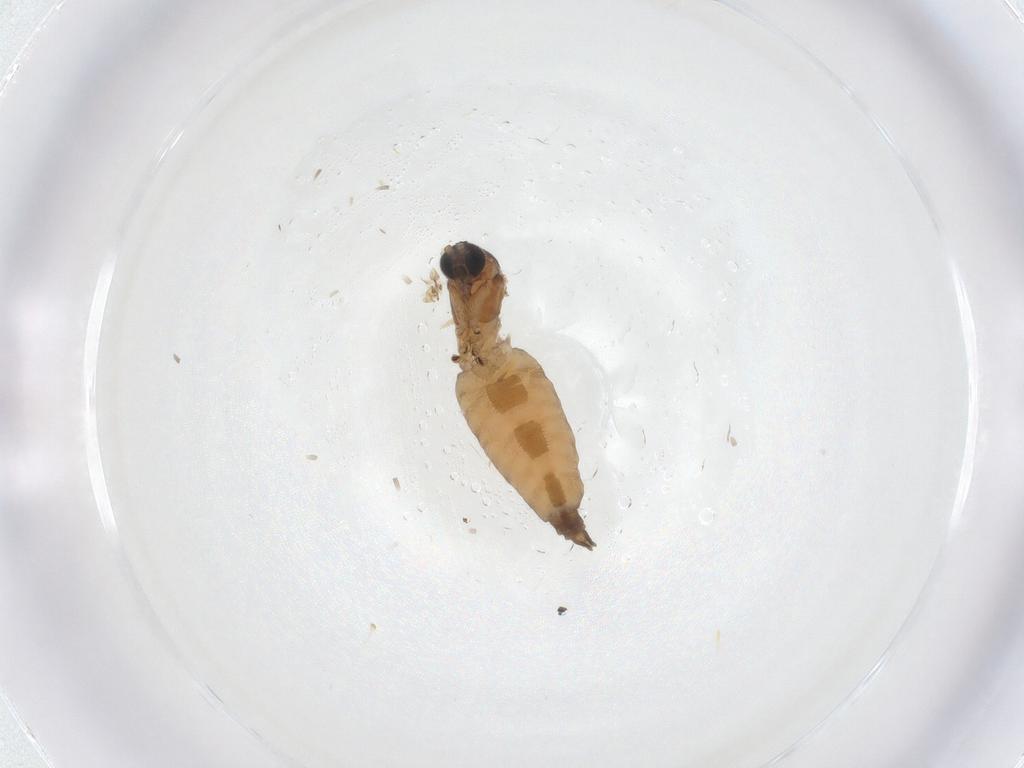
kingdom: Animalia
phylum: Arthropoda
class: Insecta
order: Diptera
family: Sciaridae
